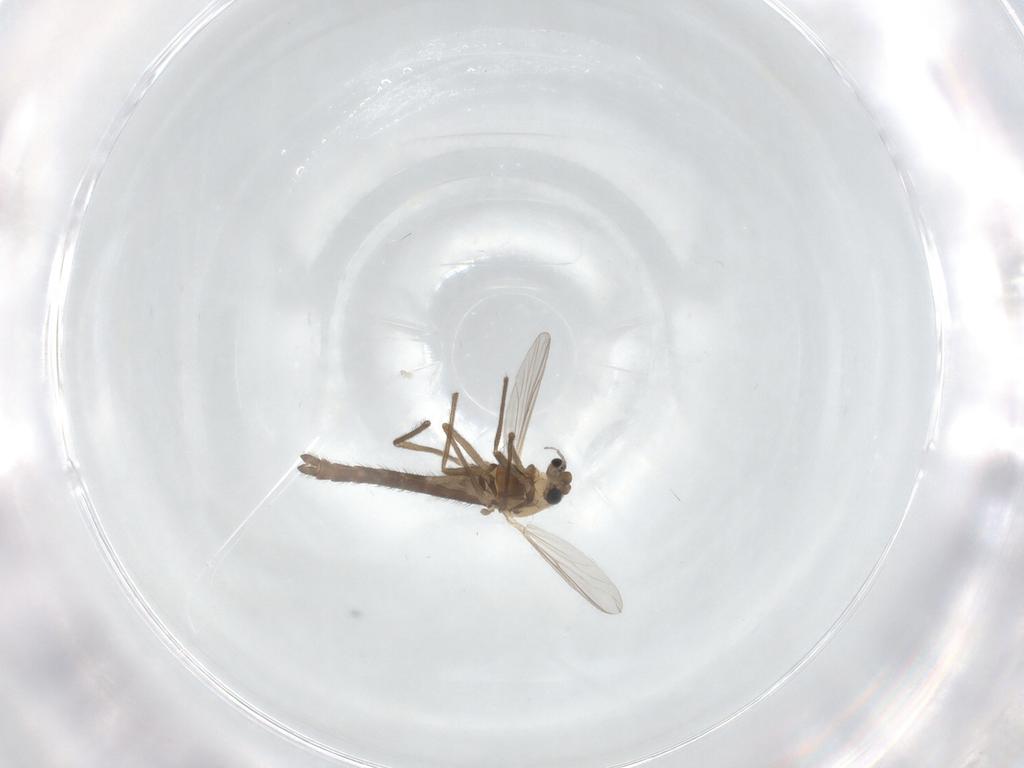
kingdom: Animalia
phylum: Arthropoda
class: Insecta
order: Diptera
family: Chironomidae
